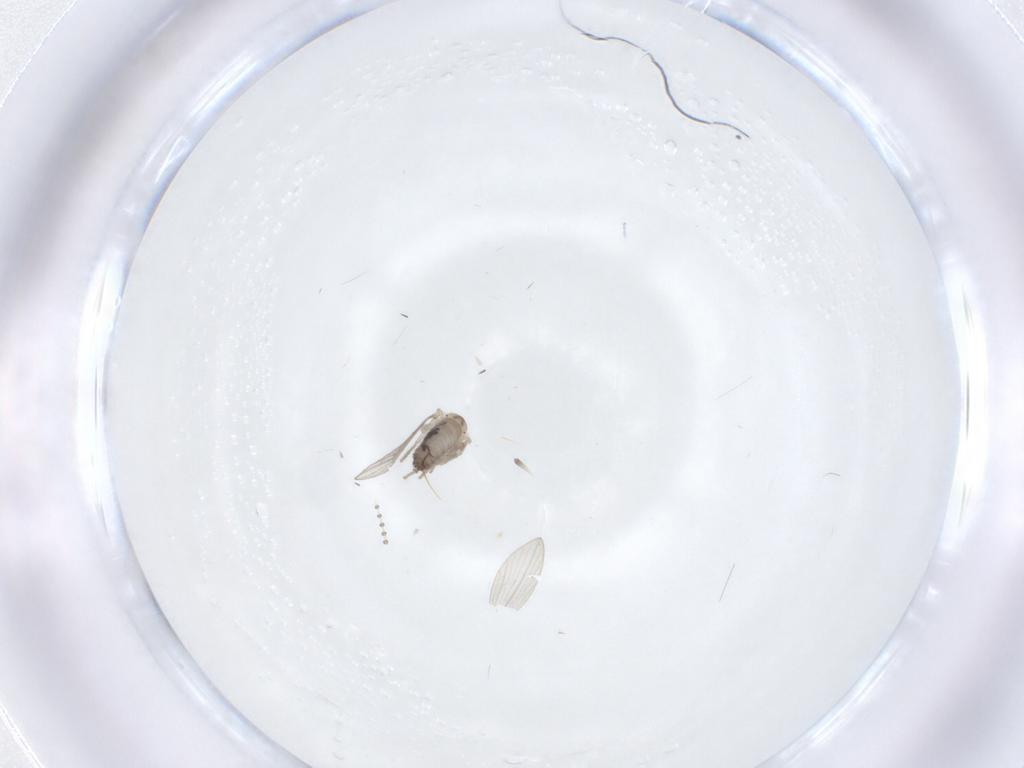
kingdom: Animalia
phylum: Arthropoda
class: Insecta
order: Diptera
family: Psychodidae
